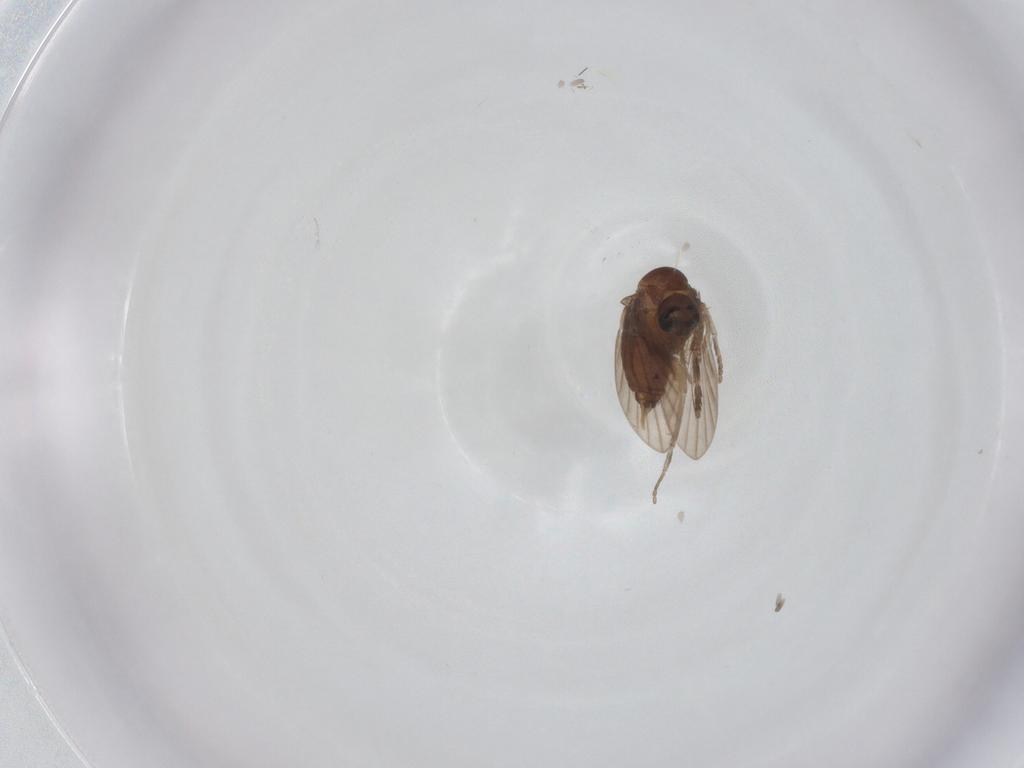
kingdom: Animalia
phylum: Arthropoda
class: Insecta
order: Diptera
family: Psychodidae
